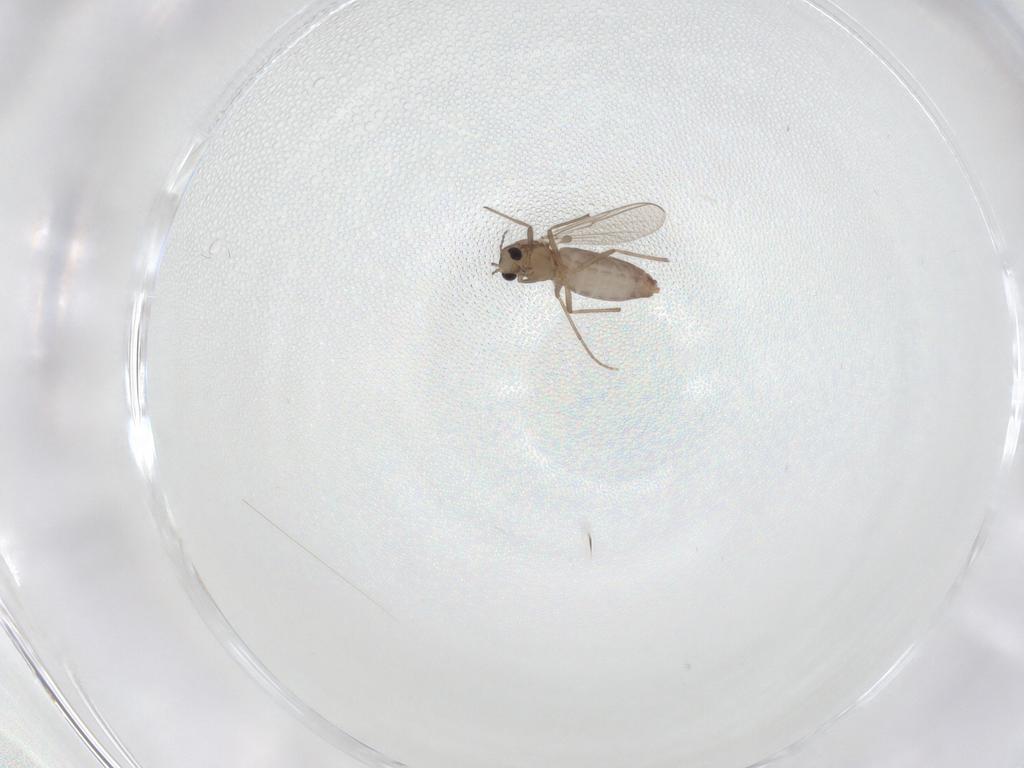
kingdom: Animalia
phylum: Arthropoda
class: Insecta
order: Diptera
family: Chironomidae
